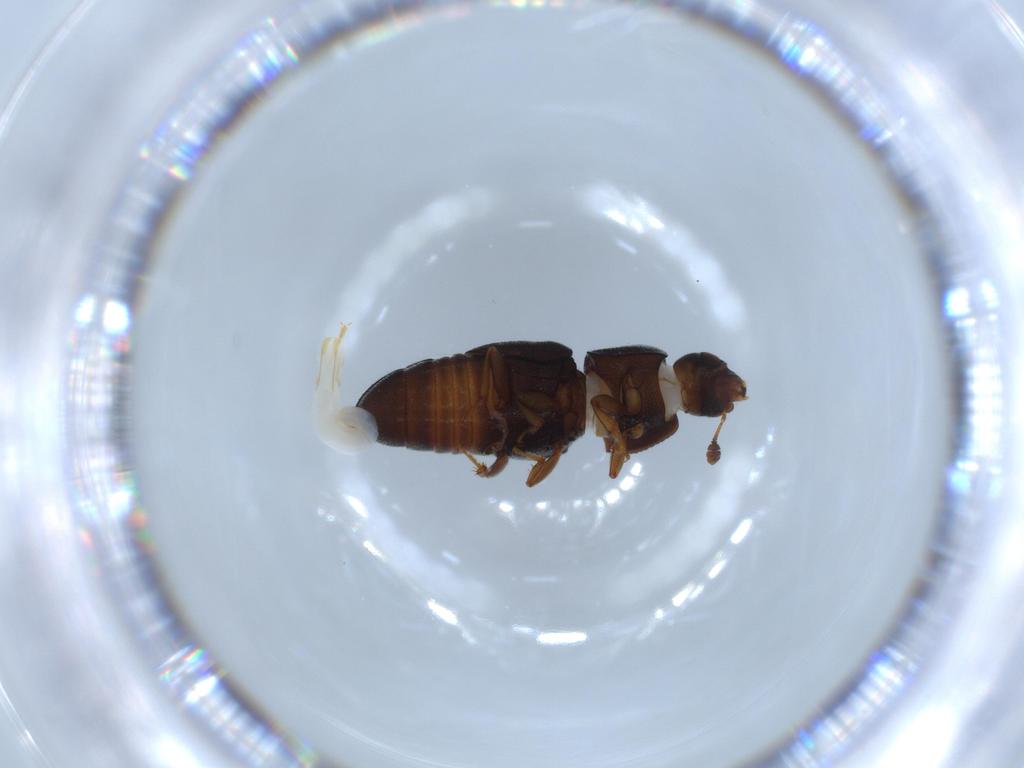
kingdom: Animalia
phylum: Arthropoda
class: Insecta
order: Coleoptera
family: Nitidulidae
